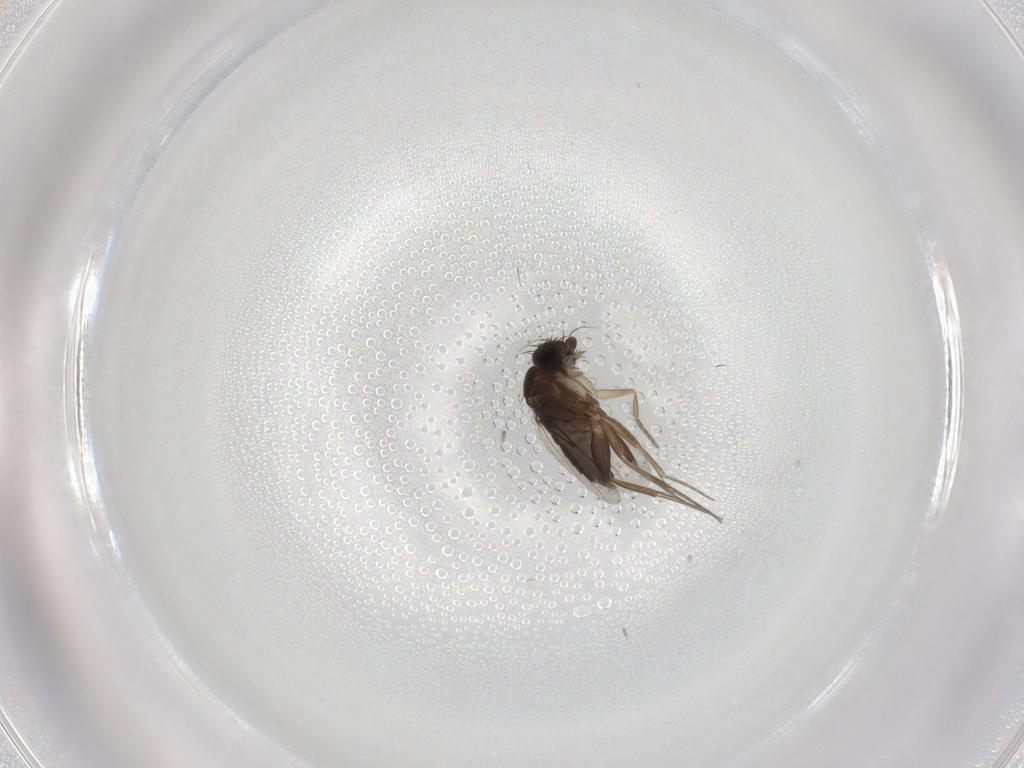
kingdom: Animalia
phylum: Arthropoda
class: Insecta
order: Diptera
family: Phoridae
